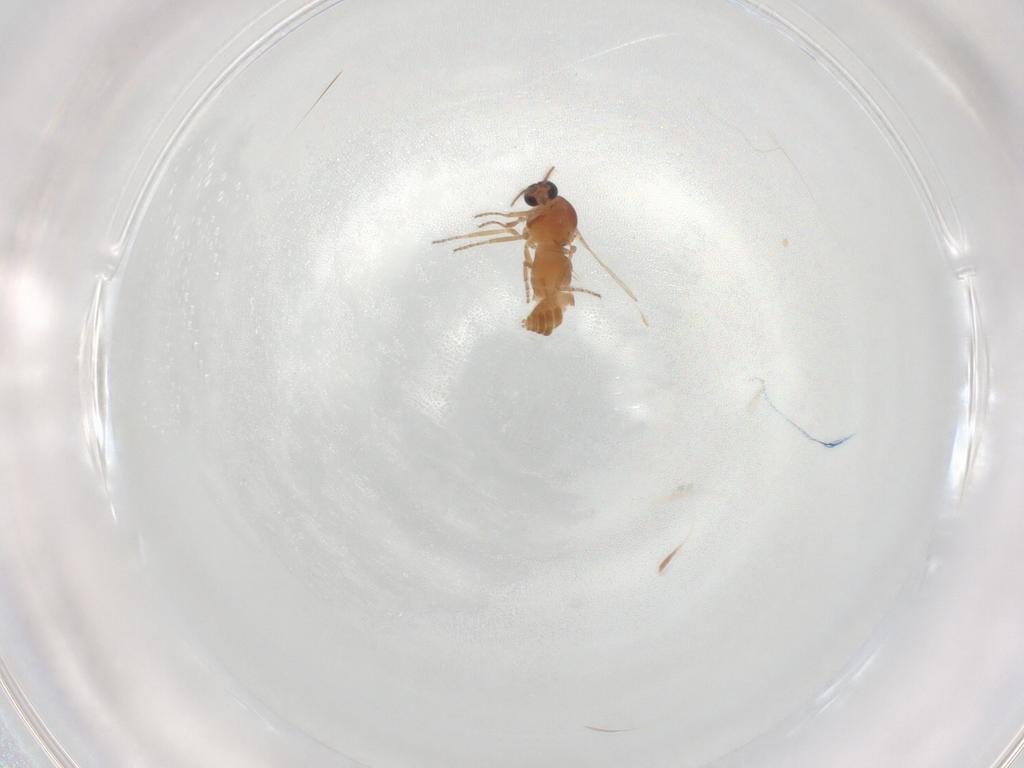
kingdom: Animalia
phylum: Arthropoda
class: Insecta
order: Diptera
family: Ceratopogonidae
